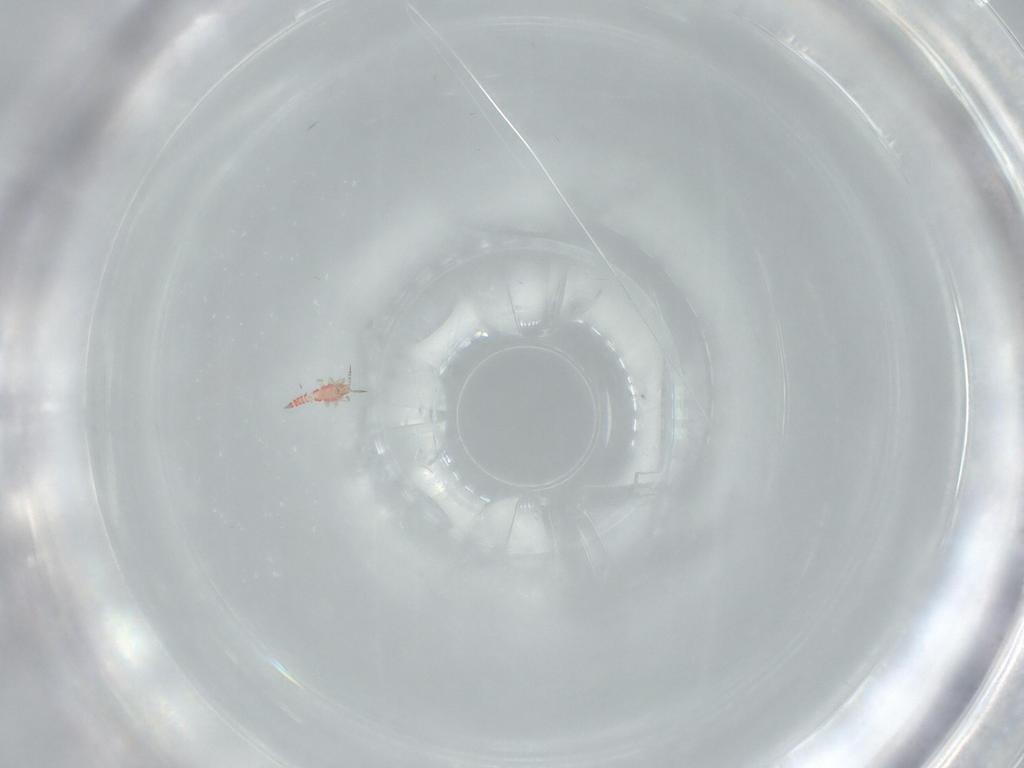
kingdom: Animalia
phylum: Arthropoda
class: Insecta
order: Thysanoptera
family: Phlaeothripidae
